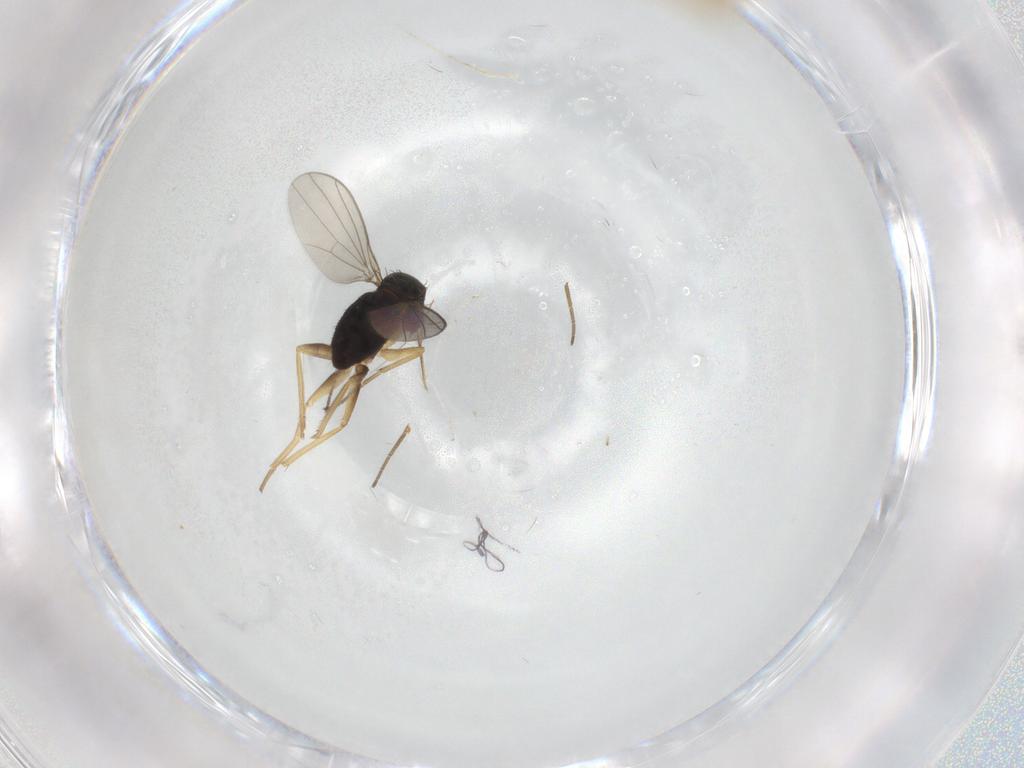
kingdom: Animalia
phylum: Arthropoda
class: Insecta
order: Diptera
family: Chironomidae
